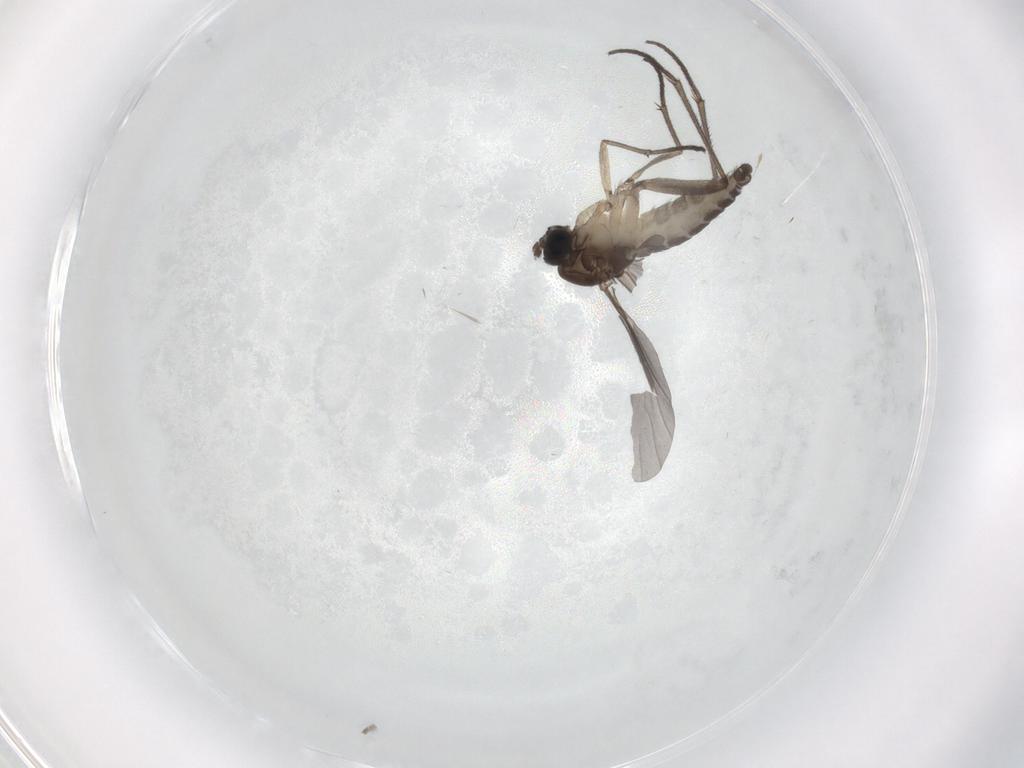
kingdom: Animalia
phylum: Arthropoda
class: Insecta
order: Diptera
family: Sciaridae
